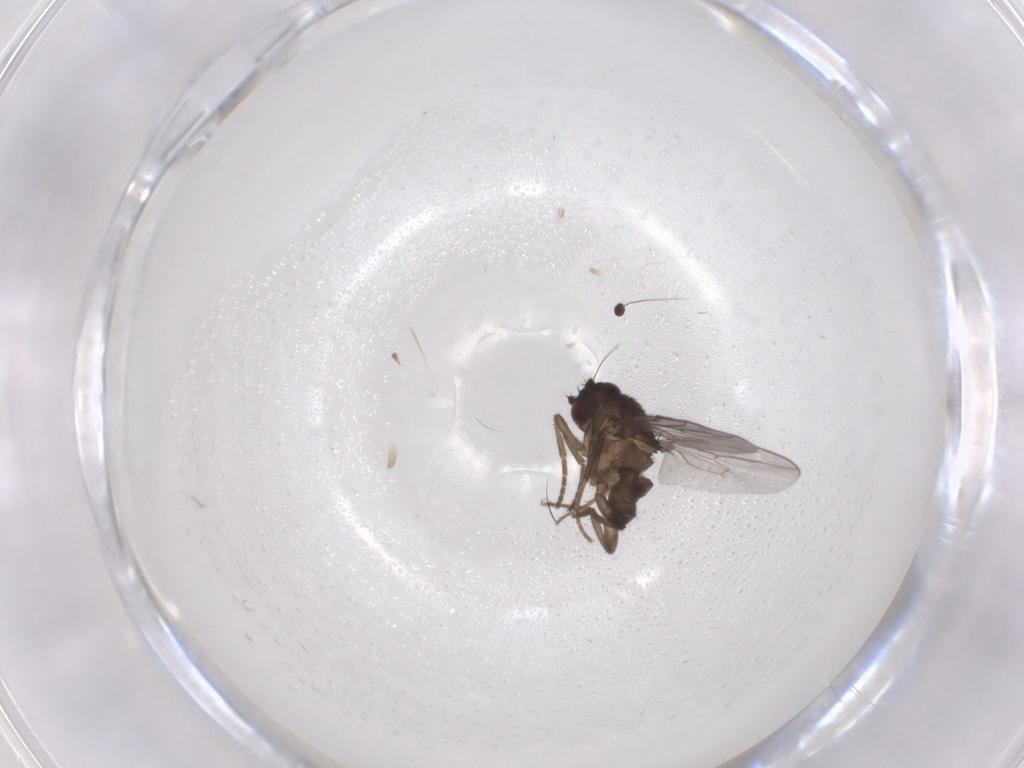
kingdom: Animalia
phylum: Arthropoda
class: Insecta
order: Diptera
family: Sphaeroceridae
